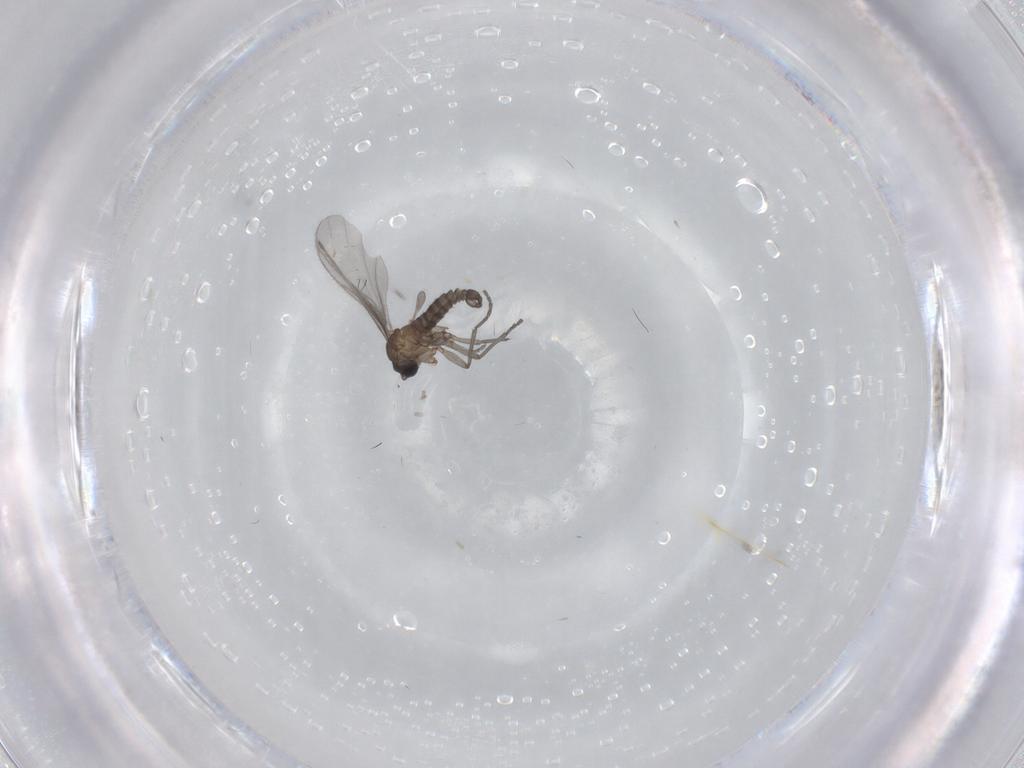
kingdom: Animalia
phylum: Arthropoda
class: Insecta
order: Diptera
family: Sciaridae
